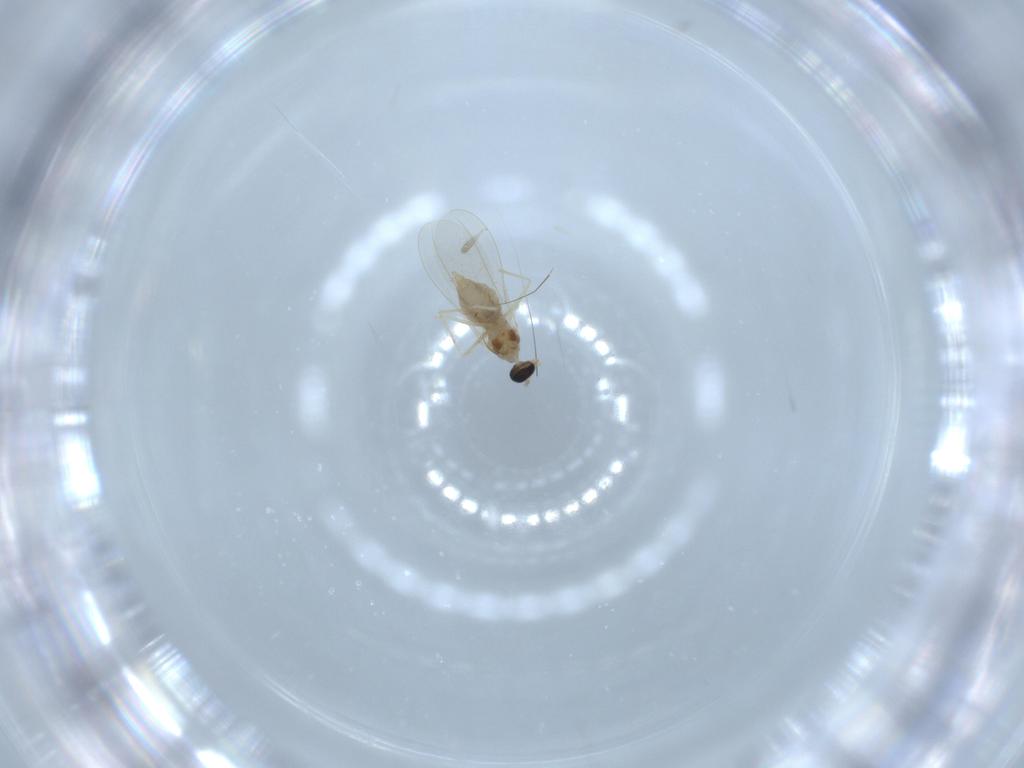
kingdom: Animalia
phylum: Arthropoda
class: Insecta
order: Diptera
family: Cecidomyiidae
